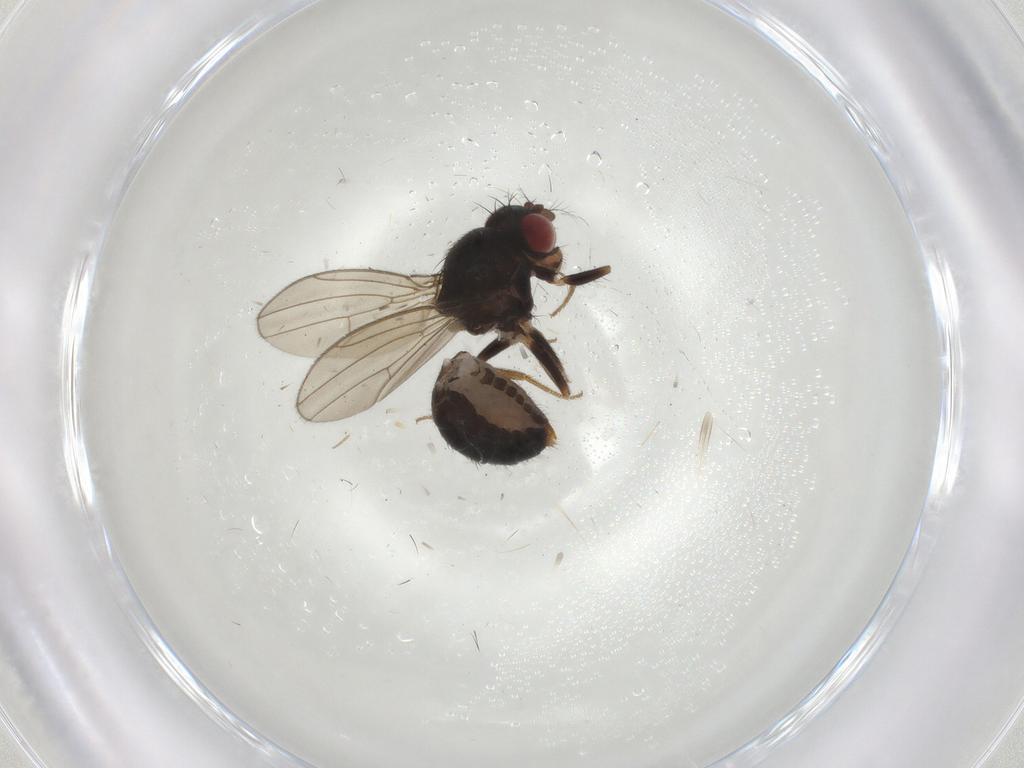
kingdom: Animalia
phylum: Arthropoda
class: Insecta
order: Diptera
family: Drosophilidae
